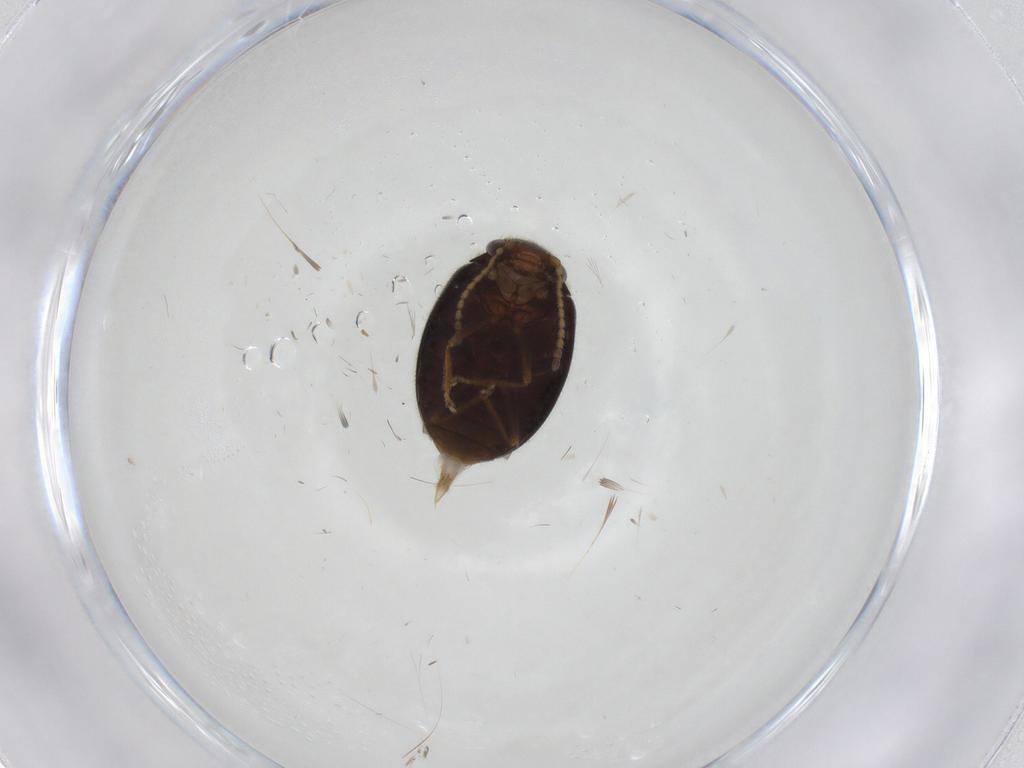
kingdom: Animalia
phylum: Arthropoda
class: Insecta
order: Coleoptera
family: Scirtidae
